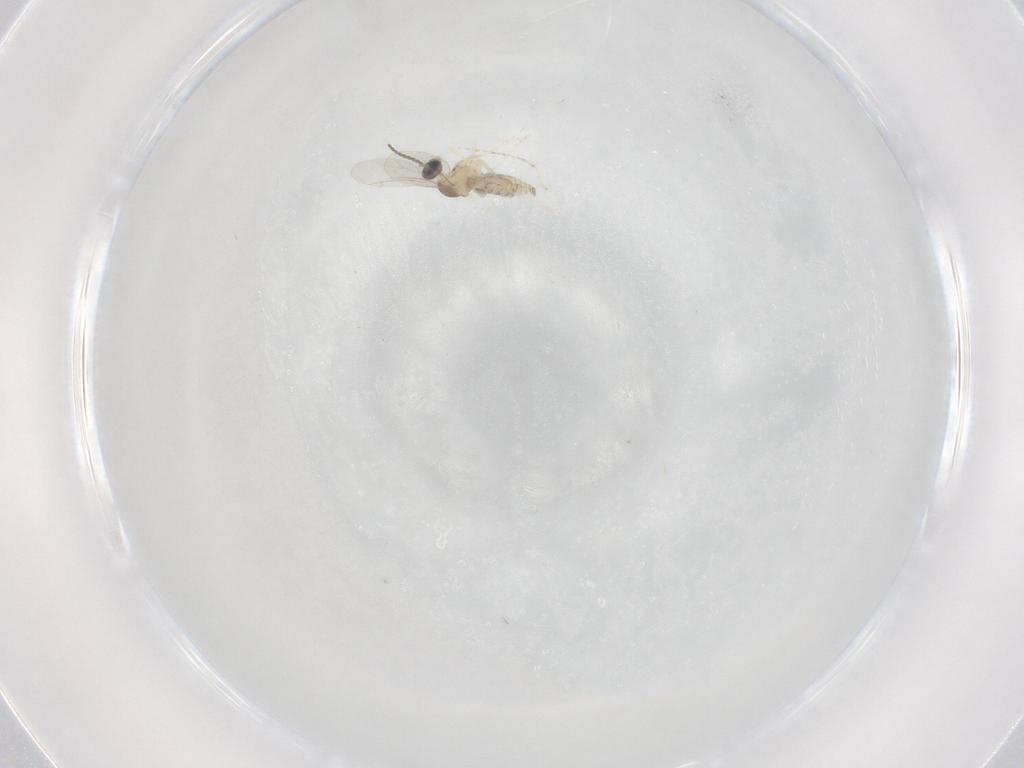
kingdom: Animalia
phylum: Arthropoda
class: Insecta
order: Diptera
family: Cecidomyiidae
